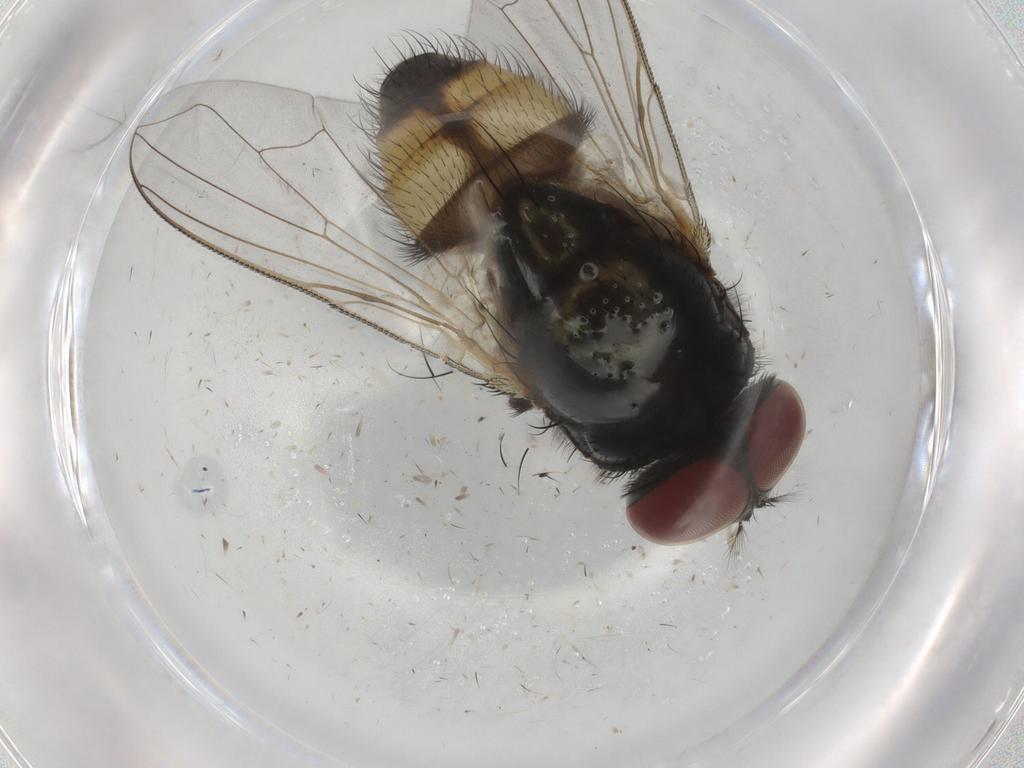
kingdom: Animalia
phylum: Arthropoda
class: Insecta
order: Diptera
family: Muscidae
